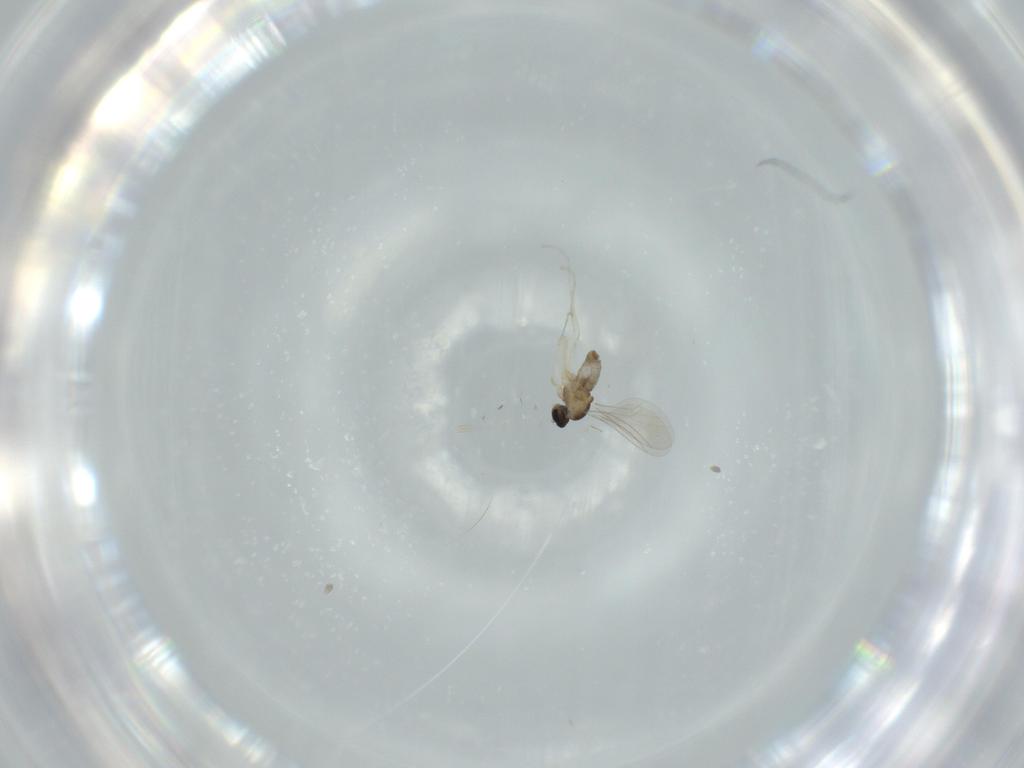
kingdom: Animalia
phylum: Arthropoda
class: Insecta
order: Diptera
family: Cecidomyiidae
